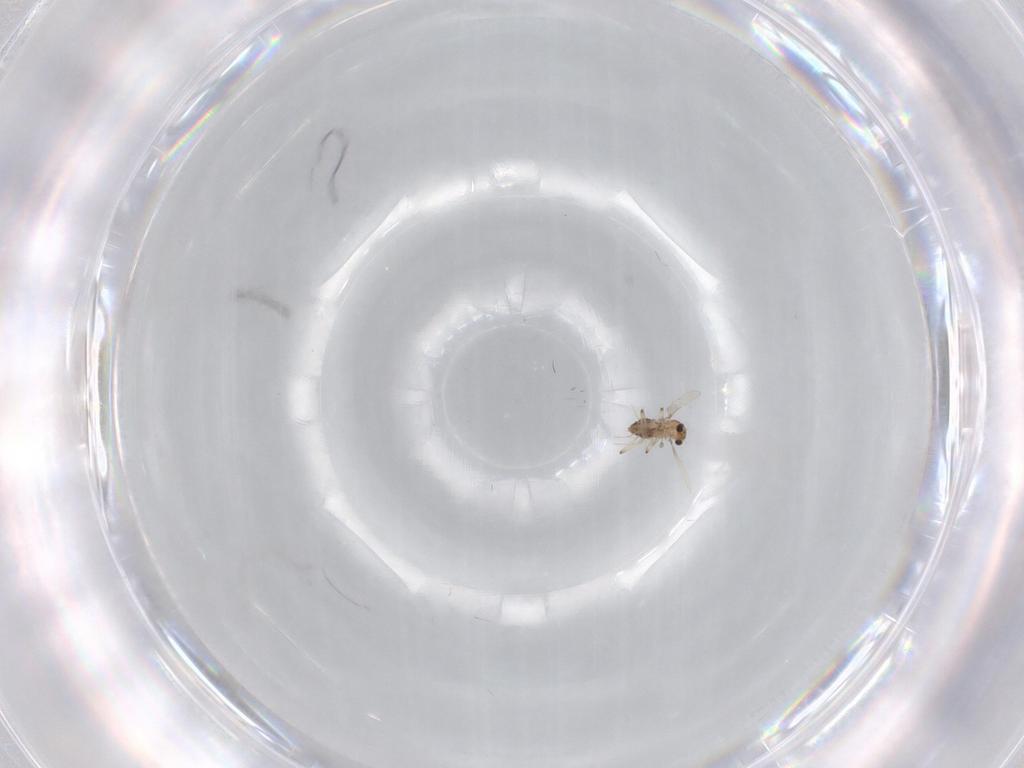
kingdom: Animalia
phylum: Arthropoda
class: Insecta
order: Diptera
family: Chironomidae
